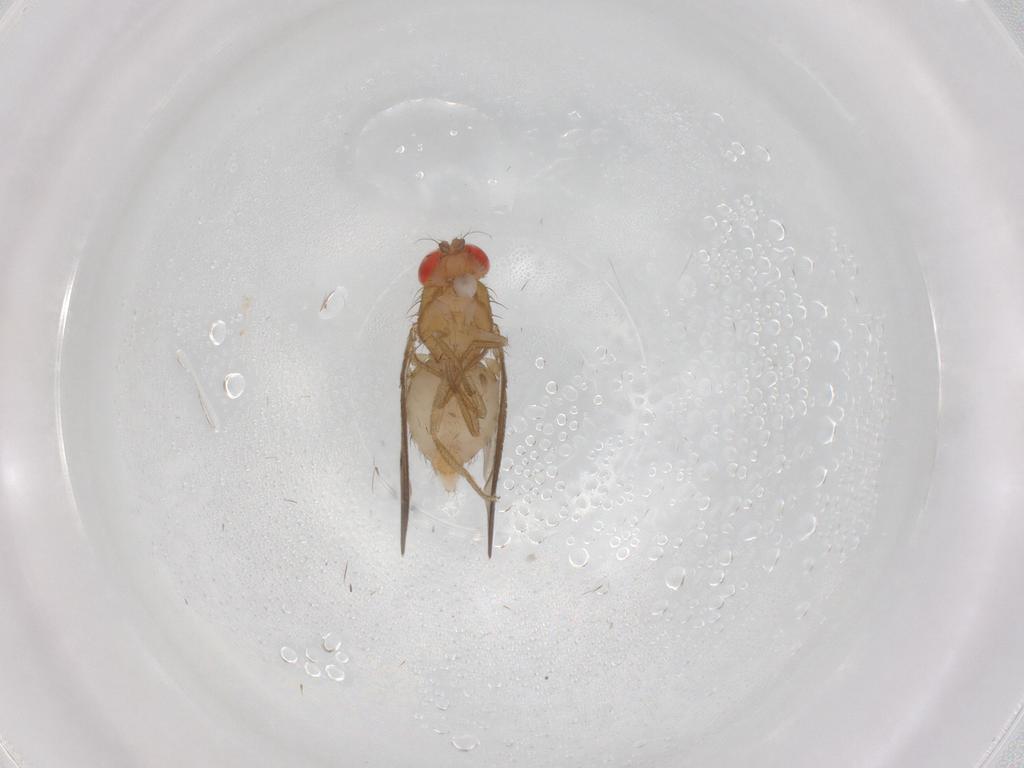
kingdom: Animalia
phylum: Arthropoda
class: Insecta
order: Diptera
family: Drosophilidae
